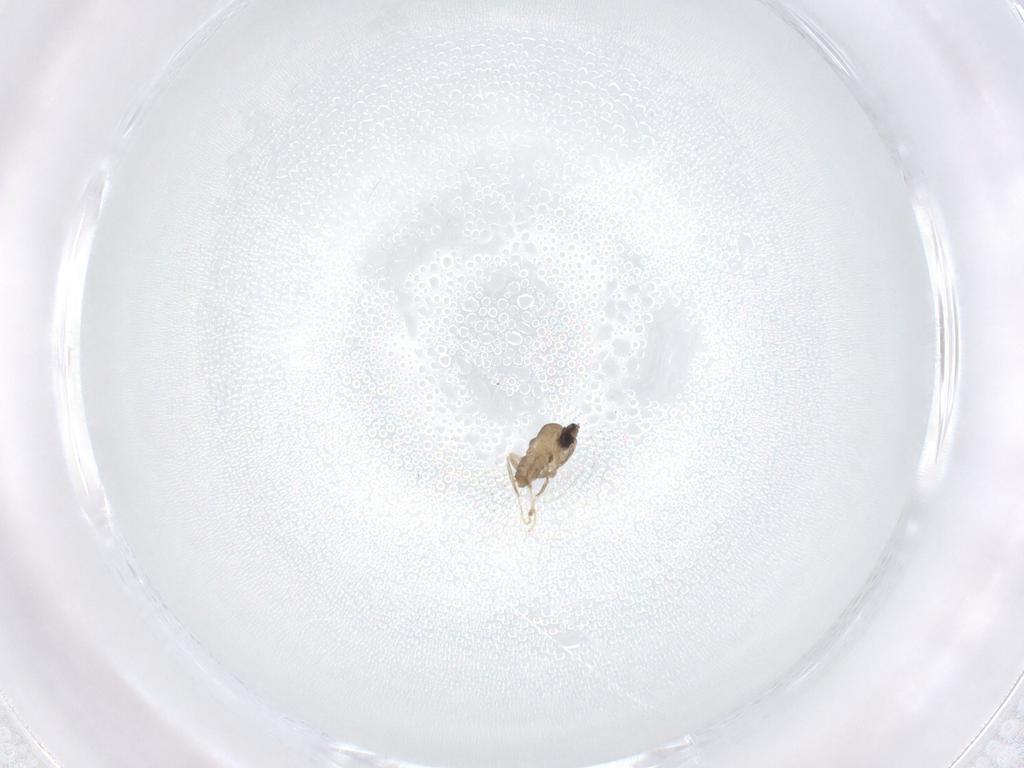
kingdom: Animalia
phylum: Arthropoda
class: Insecta
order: Diptera
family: Cecidomyiidae
